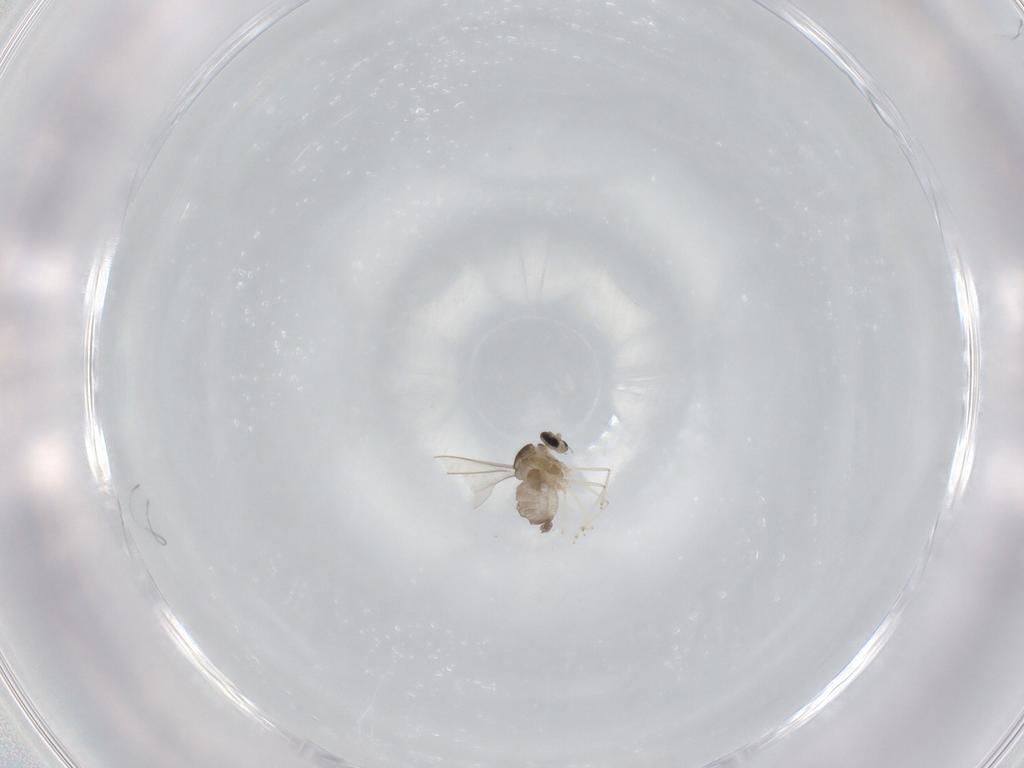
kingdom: Animalia
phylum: Arthropoda
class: Insecta
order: Diptera
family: Cecidomyiidae
